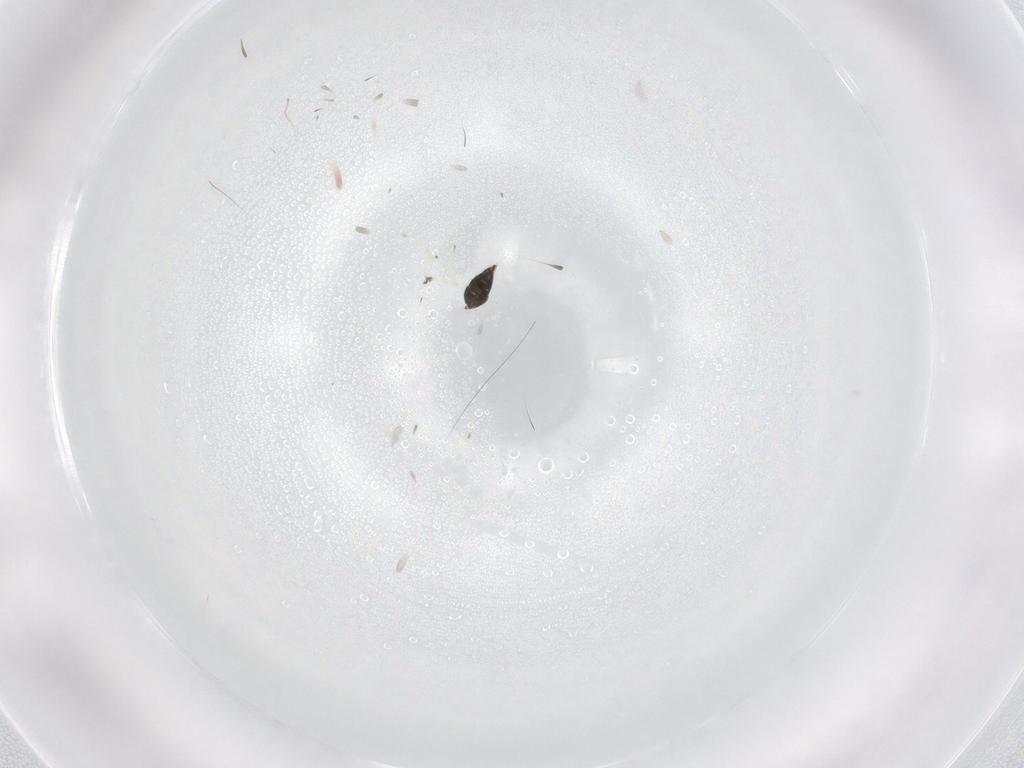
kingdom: Animalia
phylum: Arthropoda
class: Insecta
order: Hymenoptera
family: Eulophidae
